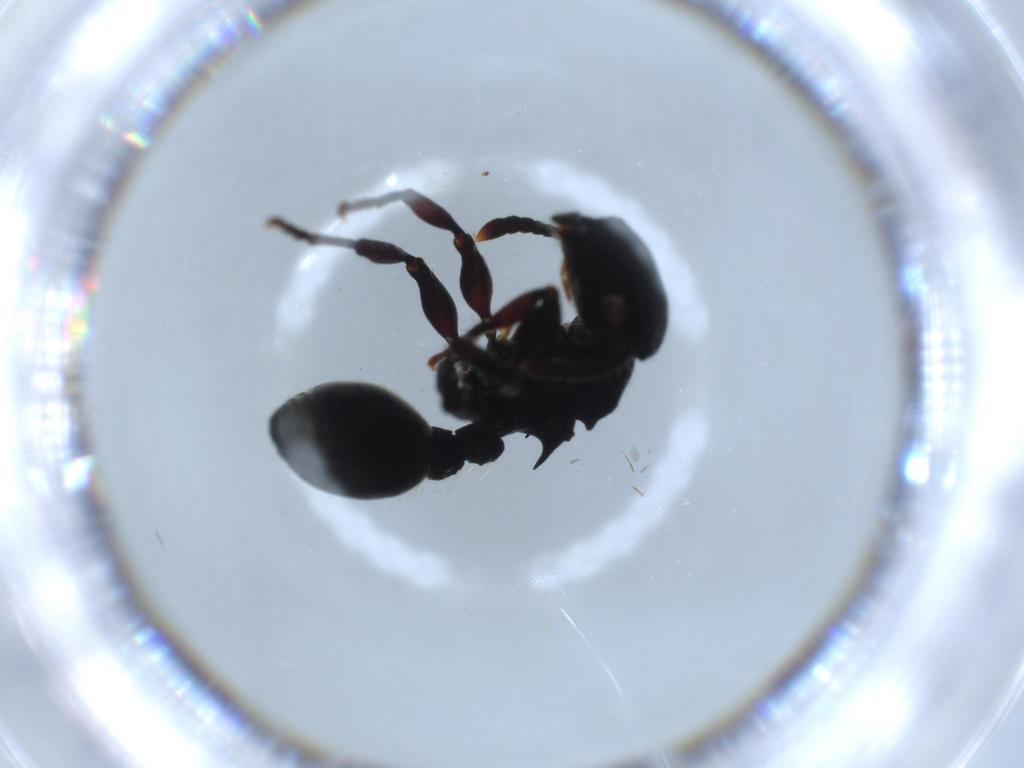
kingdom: Animalia
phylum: Arthropoda
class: Insecta
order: Hymenoptera
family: Formicidae
